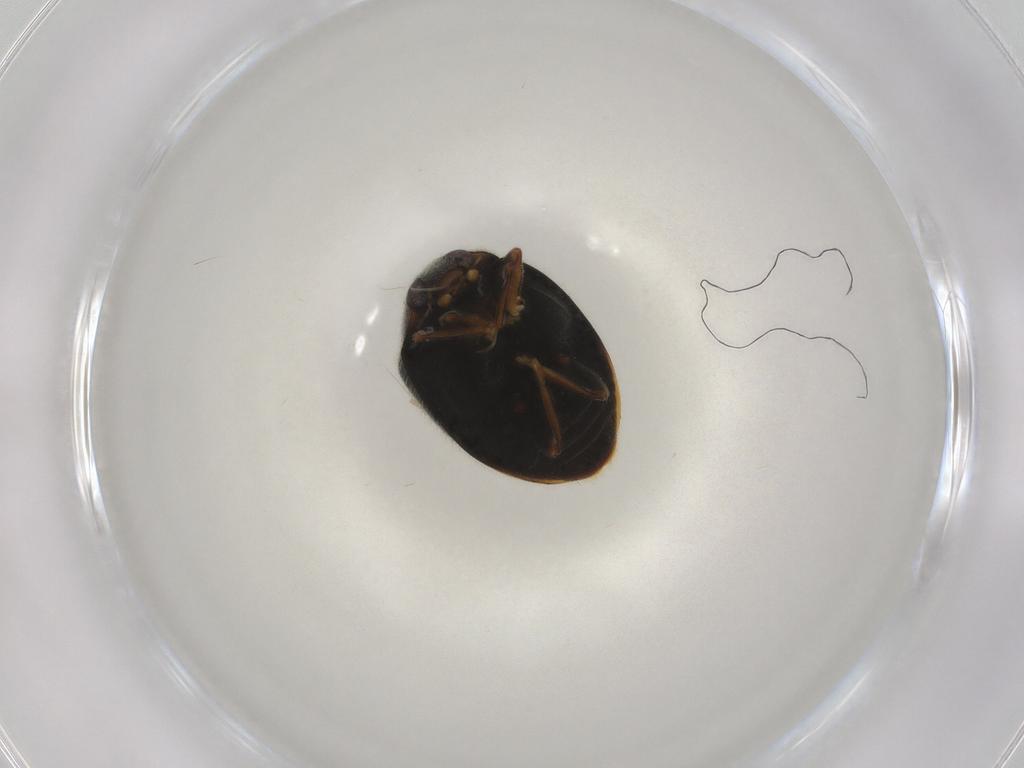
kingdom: Animalia
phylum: Arthropoda
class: Insecta
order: Coleoptera
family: Coccinellidae
